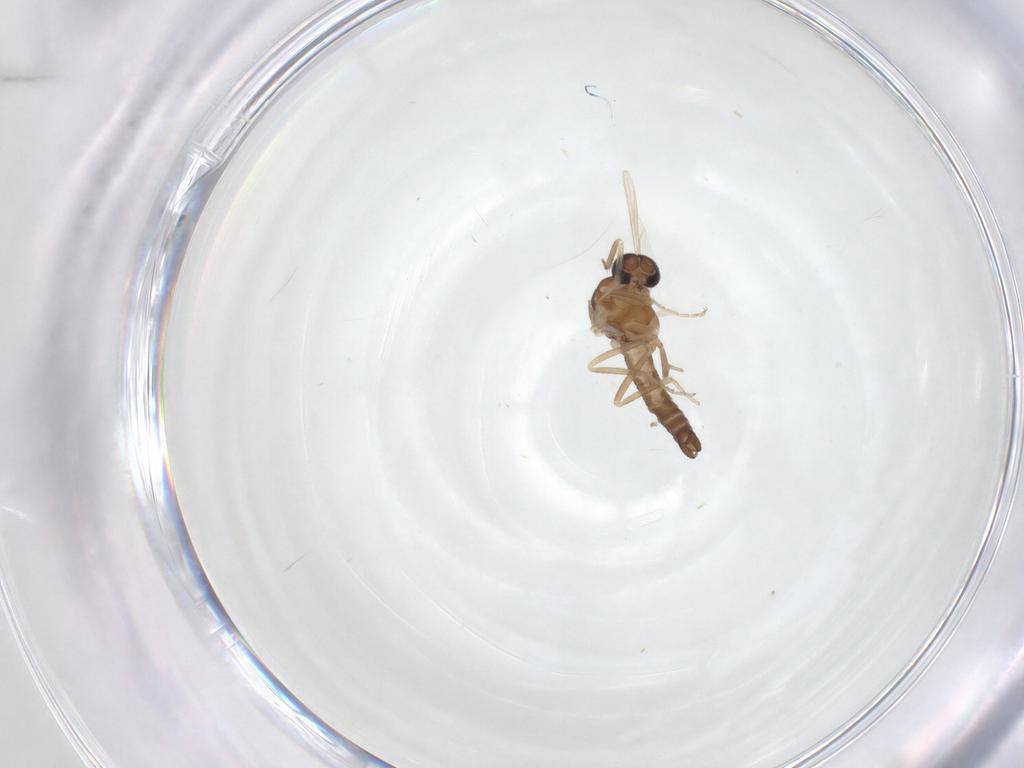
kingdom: Animalia
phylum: Arthropoda
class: Insecta
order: Diptera
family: Ceratopogonidae
